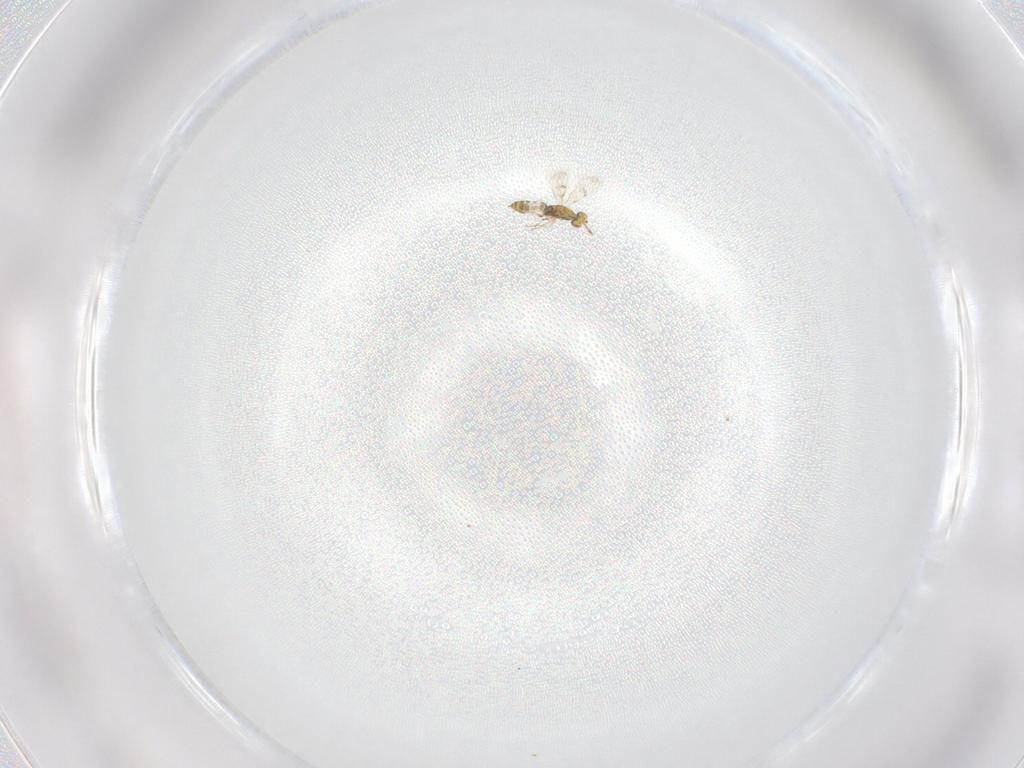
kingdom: Animalia
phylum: Arthropoda
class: Insecta
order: Hymenoptera
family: Eulophidae
